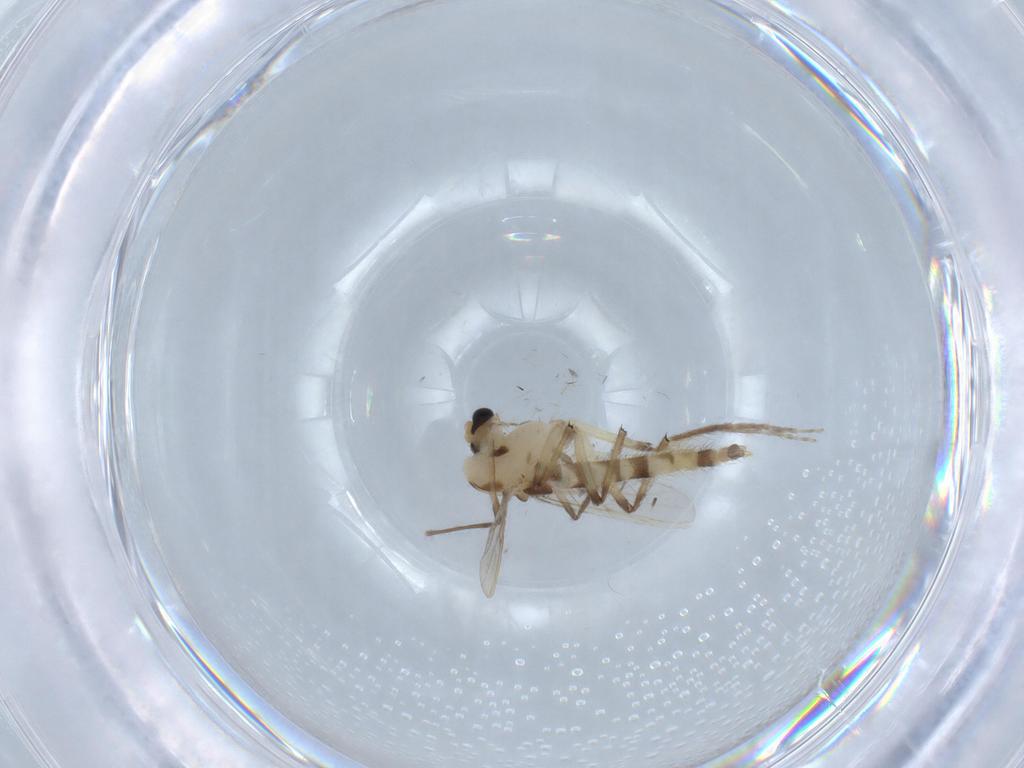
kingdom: Animalia
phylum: Arthropoda
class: Insecta
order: Diptera
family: Chironomidae
